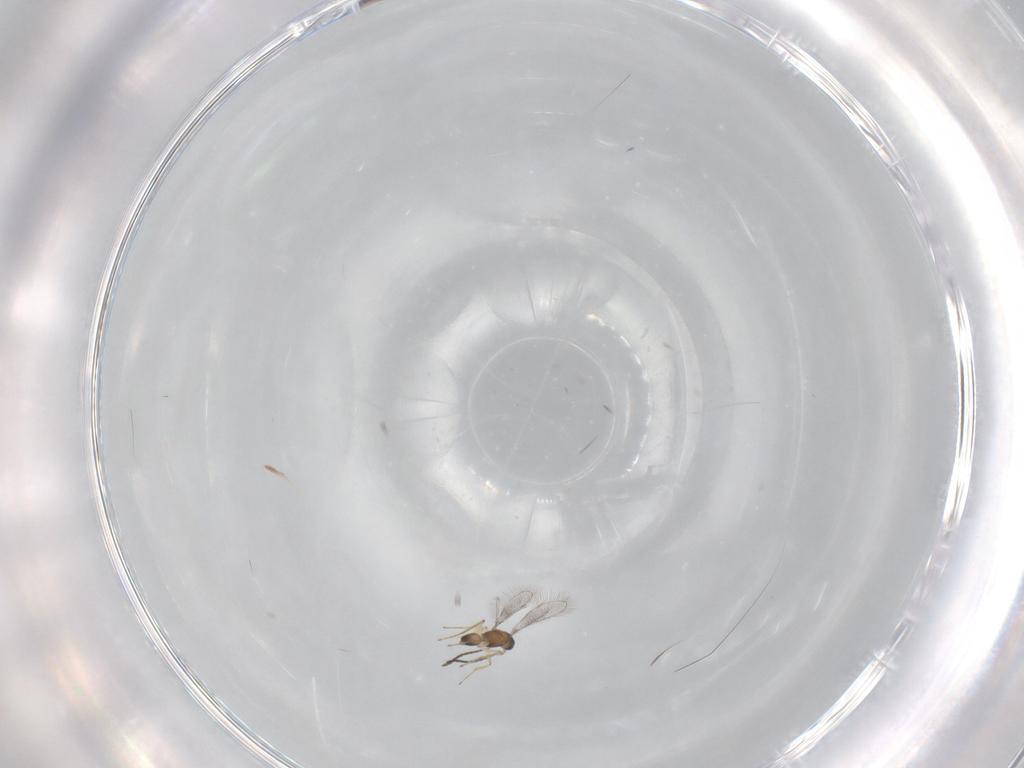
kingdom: Animalia
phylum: Arthropoda
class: Insecta
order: Hymenoptera
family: Mymaridae
